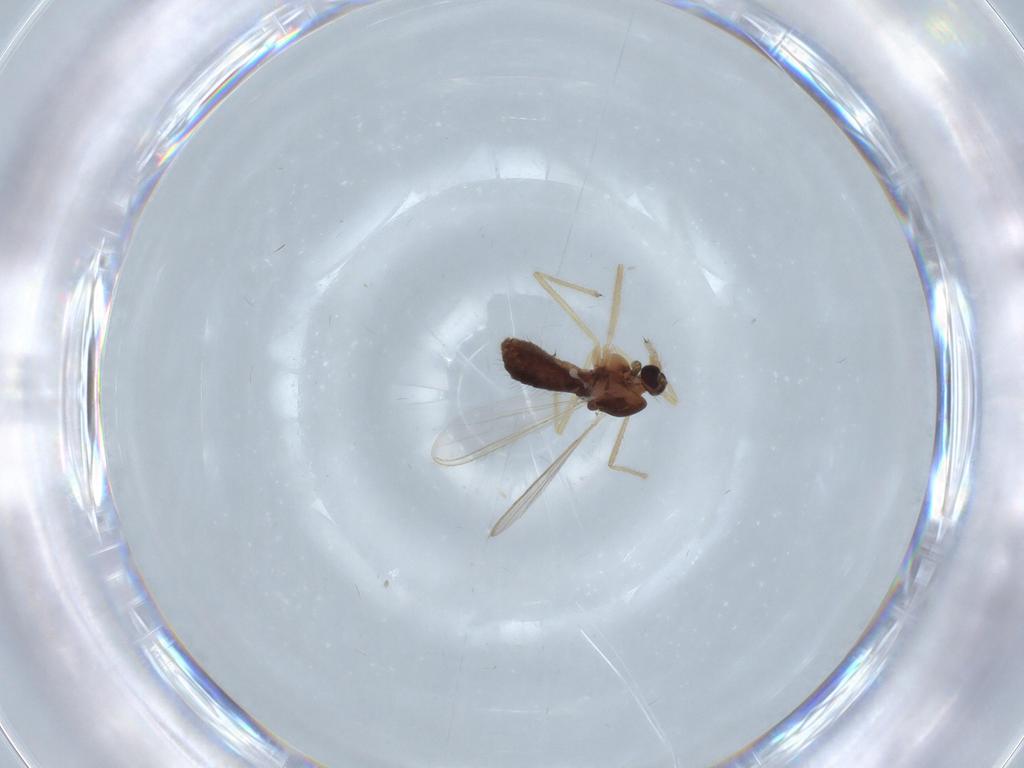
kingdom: Animalia
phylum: Arthropoda
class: Insecta
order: Diptera
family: Chironomidae
